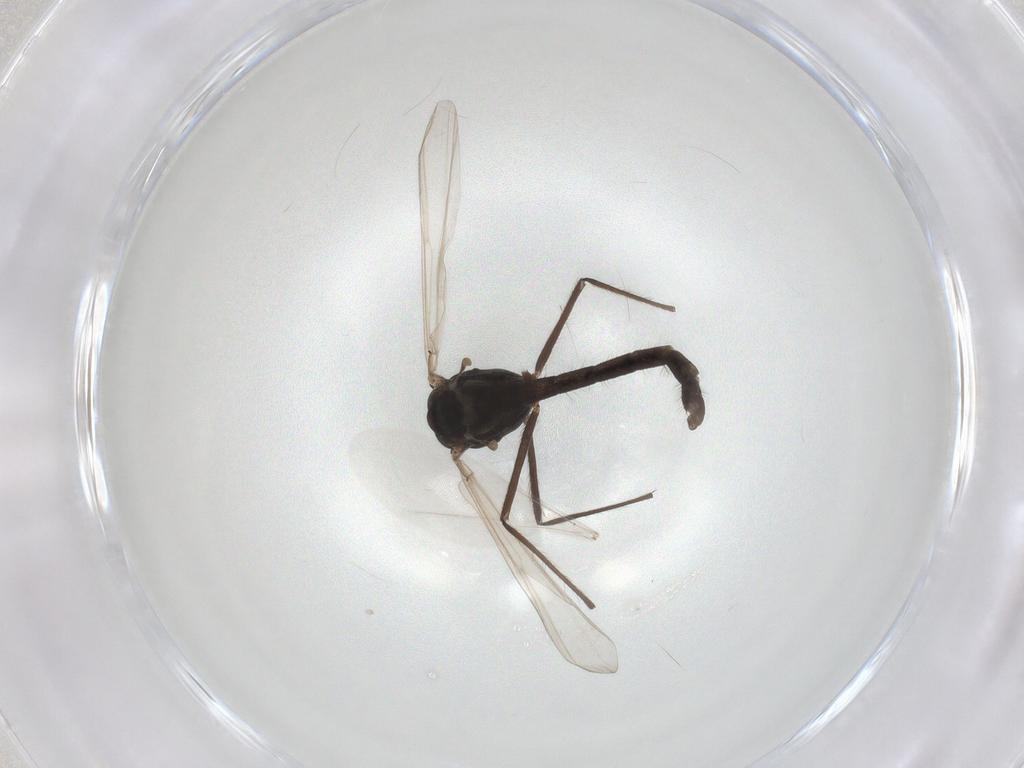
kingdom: Animalia
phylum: Arthropoda
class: Insecta
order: Diptera
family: Chironomidae
